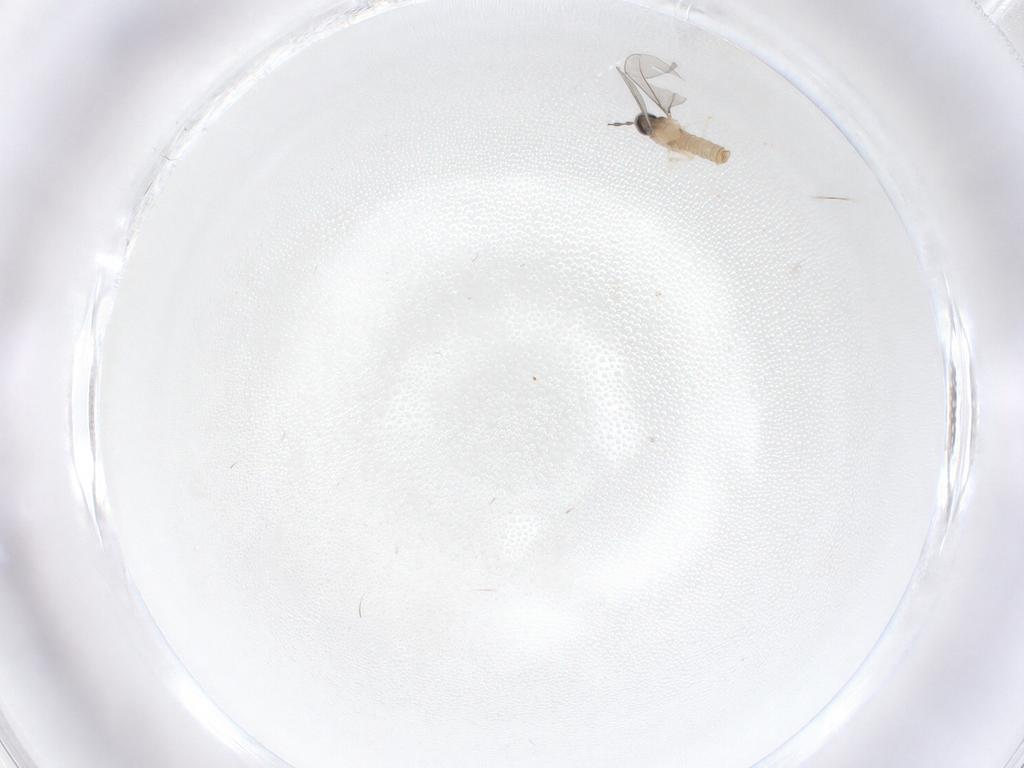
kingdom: Animalia
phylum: Arthropoda
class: Insecta
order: Diptera
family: Cecidomyiidae
